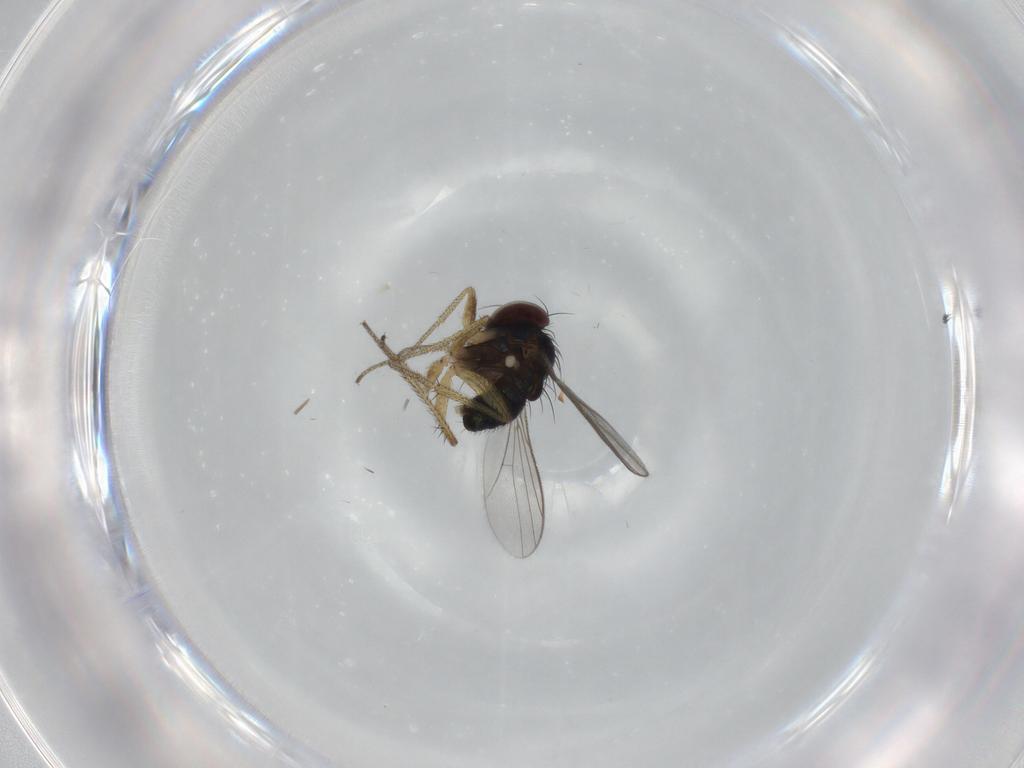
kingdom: Animalia
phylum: Arthropoda
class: Insecta
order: Diptera
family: Dolichopodidae
